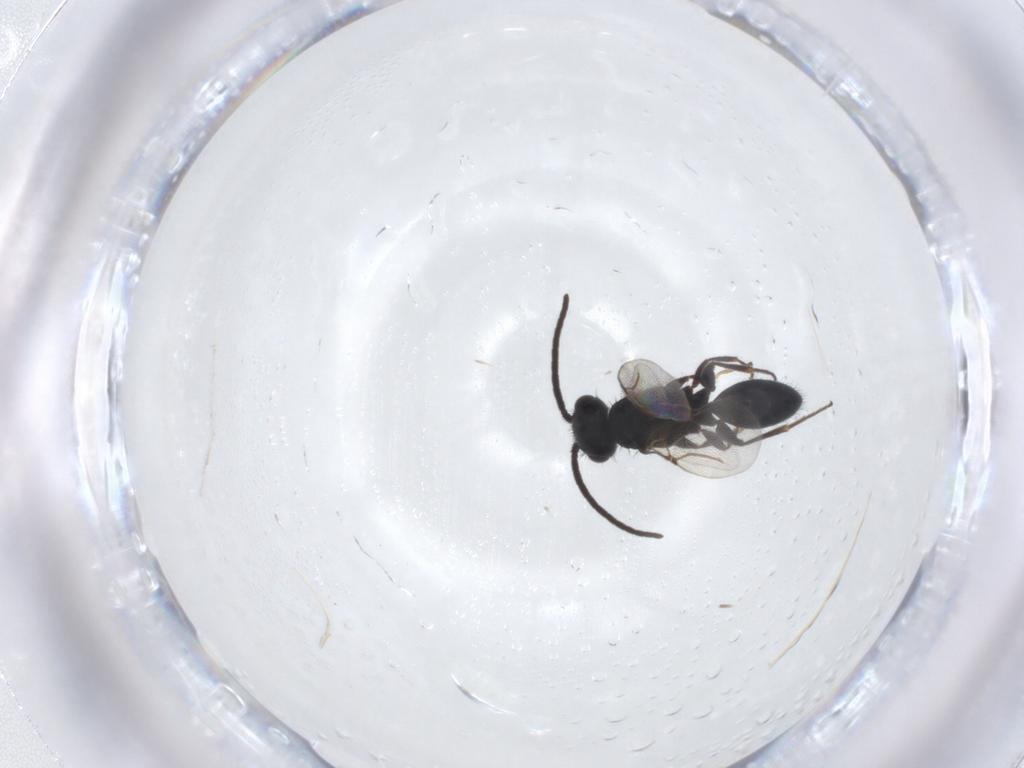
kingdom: Animalia
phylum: Arthropoda
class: Insecta
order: Hymenoptera
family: Bethylidae
